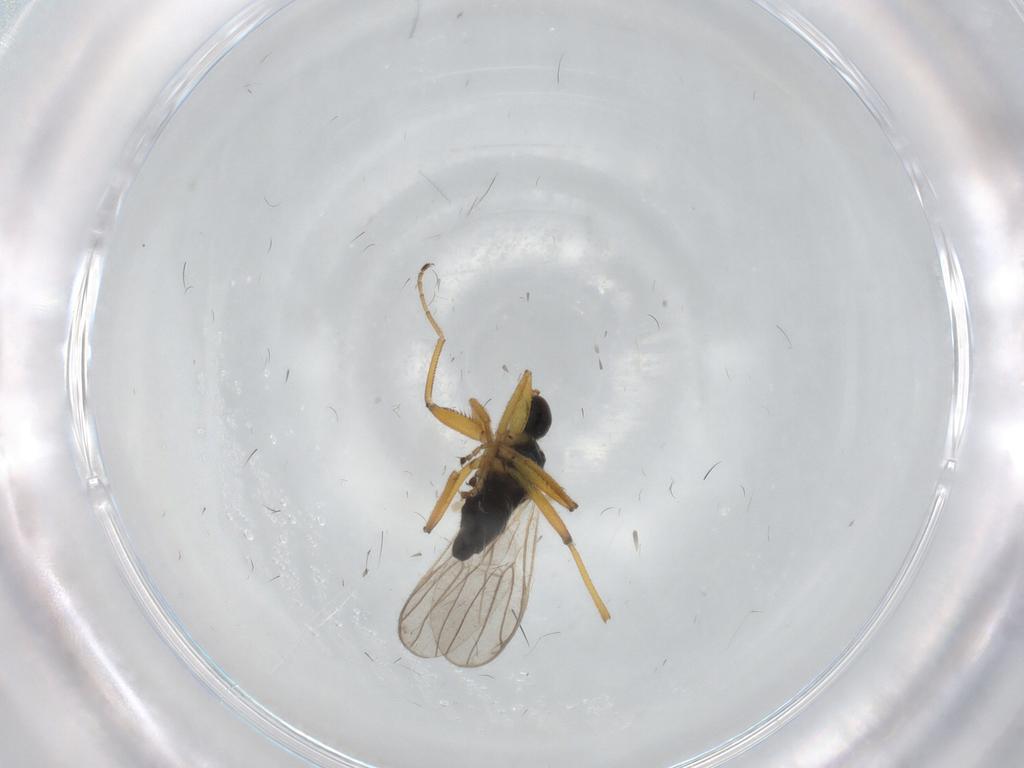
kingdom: Animalia
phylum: Arthropoda
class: Insecta
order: Diptera
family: Chironomidae
